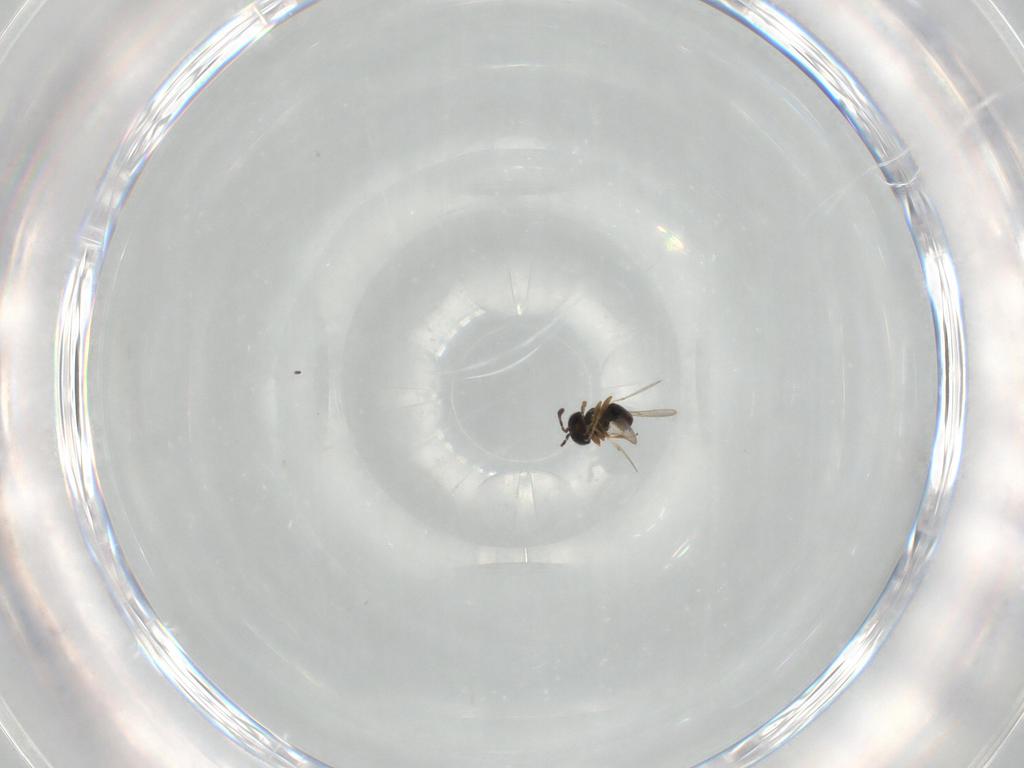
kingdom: Animalia
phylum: Arthropoda
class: Insecta
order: Hymenoptera
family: Scelionidae
